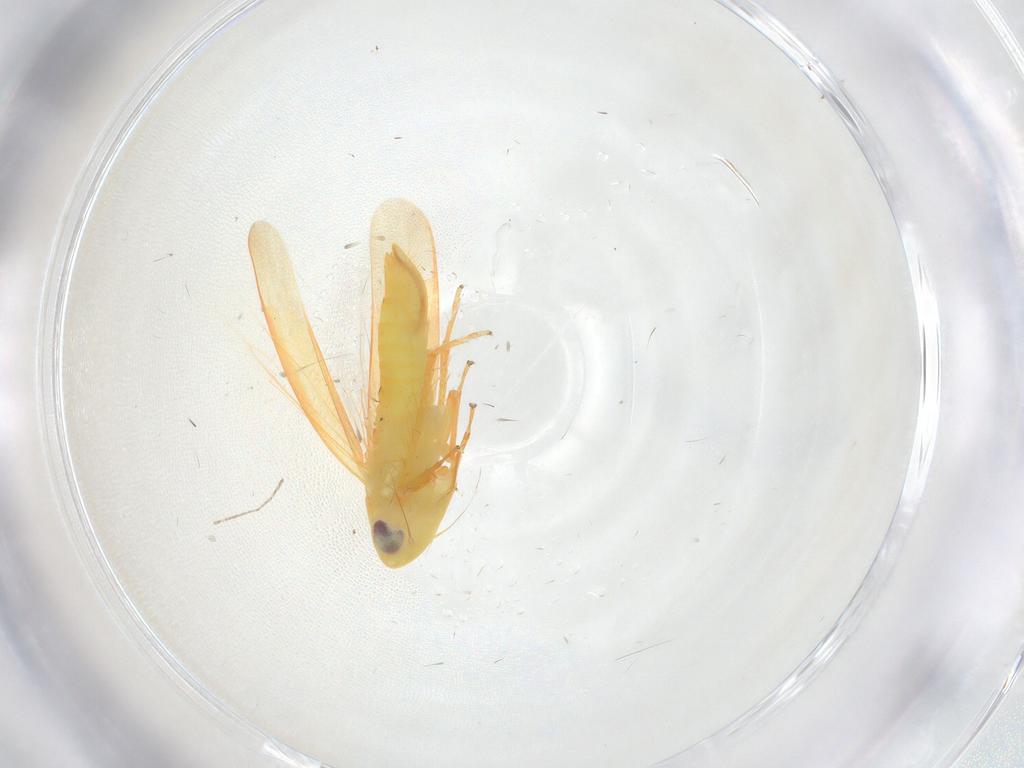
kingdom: Animalia
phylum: Arthropoda
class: Insecta
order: Hemiptera
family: Cicadellidae
